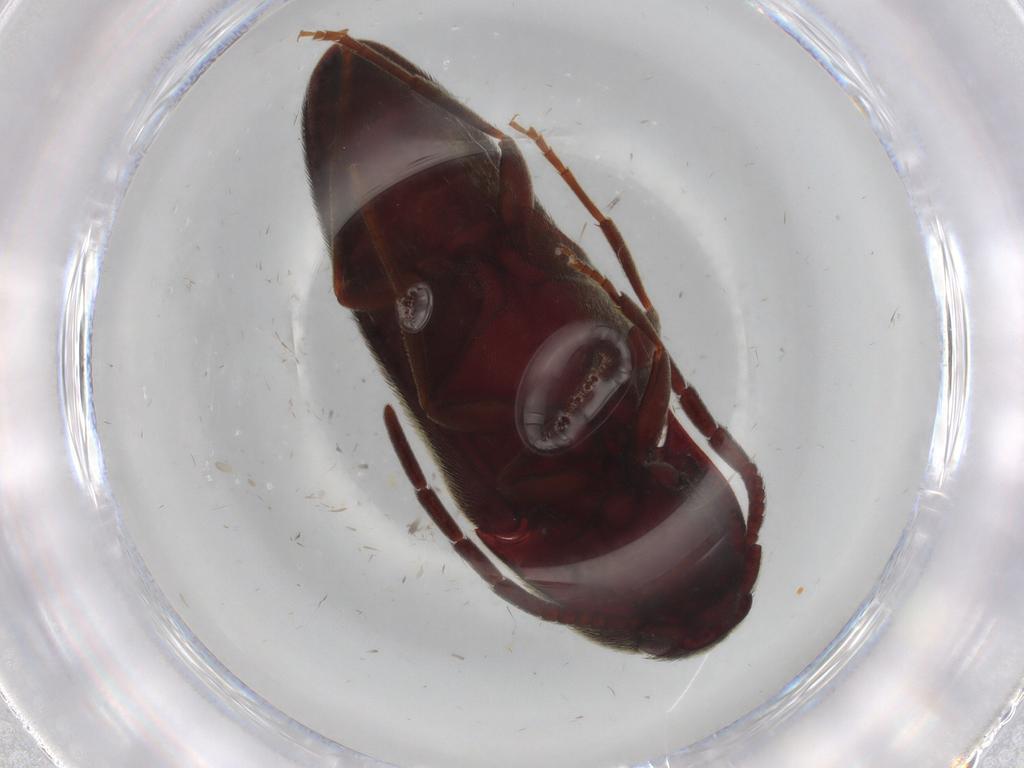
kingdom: Animalia
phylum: Arthropoda
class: Insecta
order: Coleoptera
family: Eucnemidae
